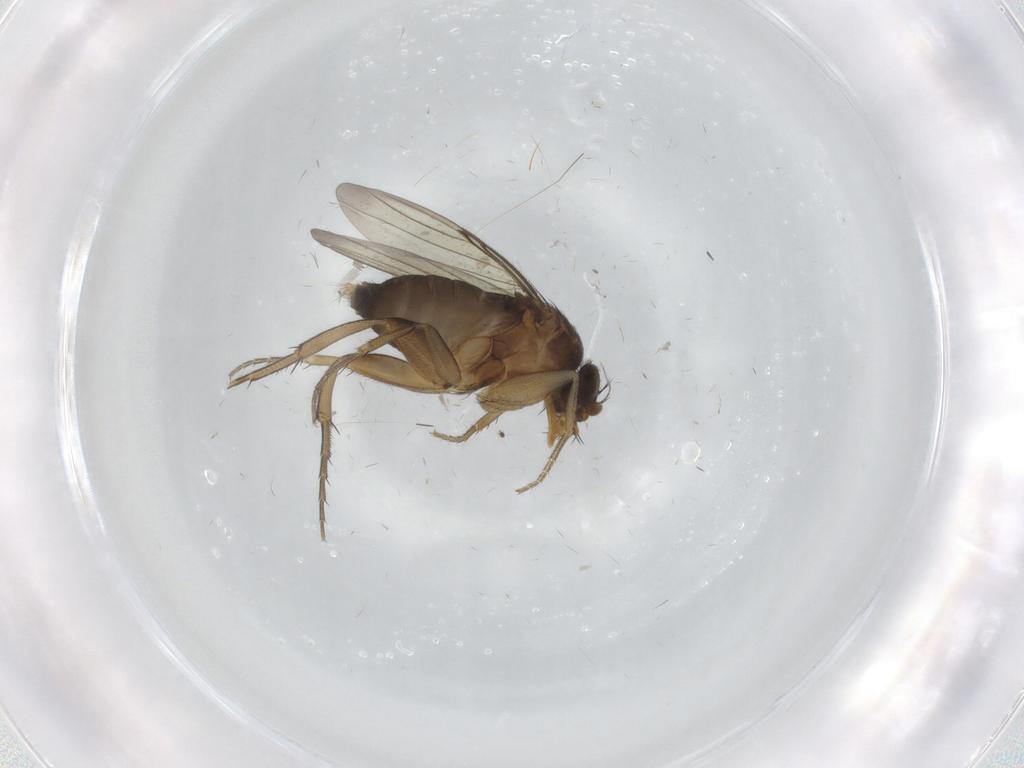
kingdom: Animalia
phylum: Arthropoda
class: Insecta
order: Diptera
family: Phoridae
